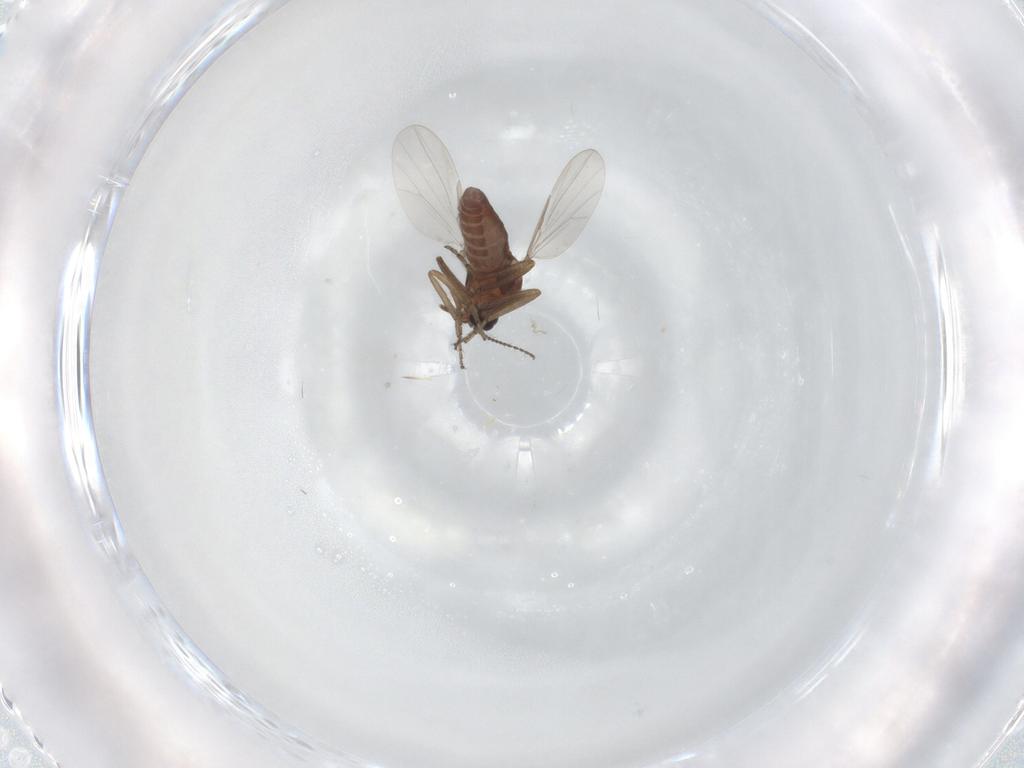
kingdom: Animalia
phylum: Arthropoda
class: Insecta
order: Diptera
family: Ceratopogonidae
